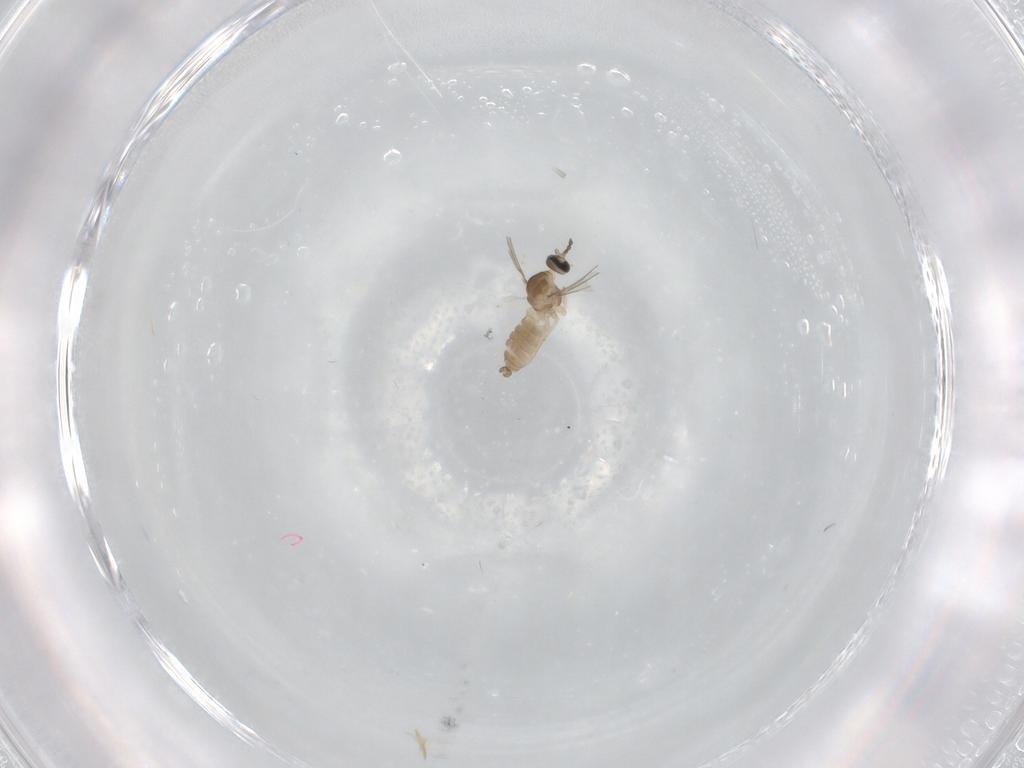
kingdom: Animalia
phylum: Arthropoda
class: Insecta
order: Diptera
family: Cecidomyiidae
